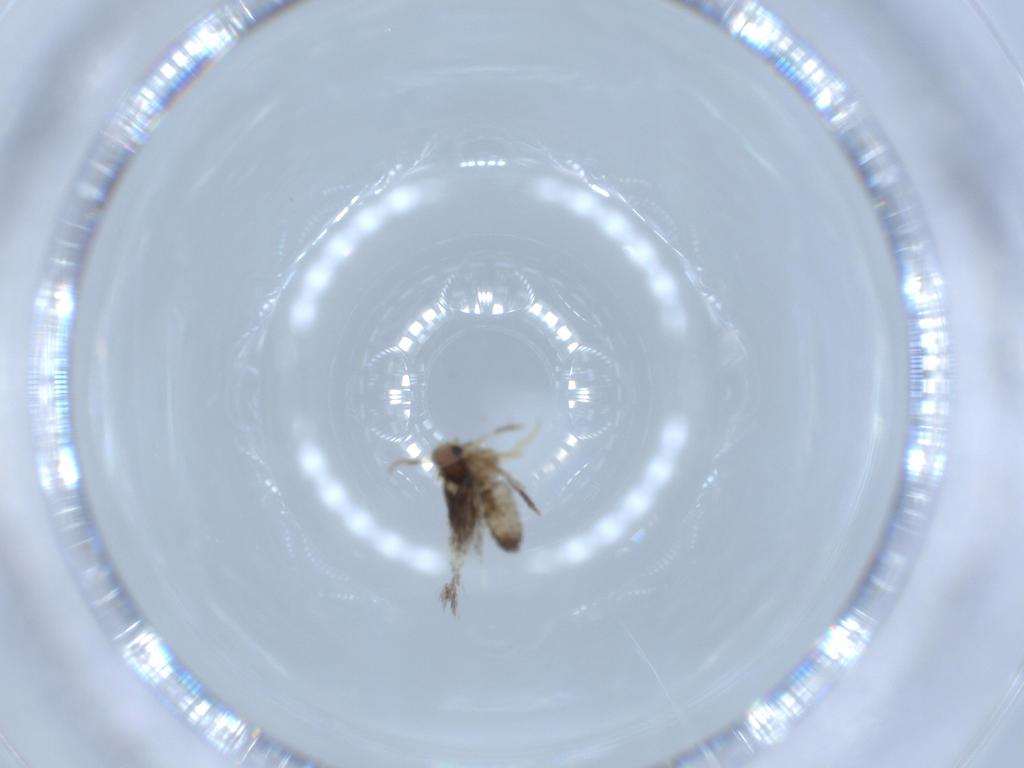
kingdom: Animalia
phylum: Arthropoda
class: Insecta
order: Lepidoptera
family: Nepticulidae
